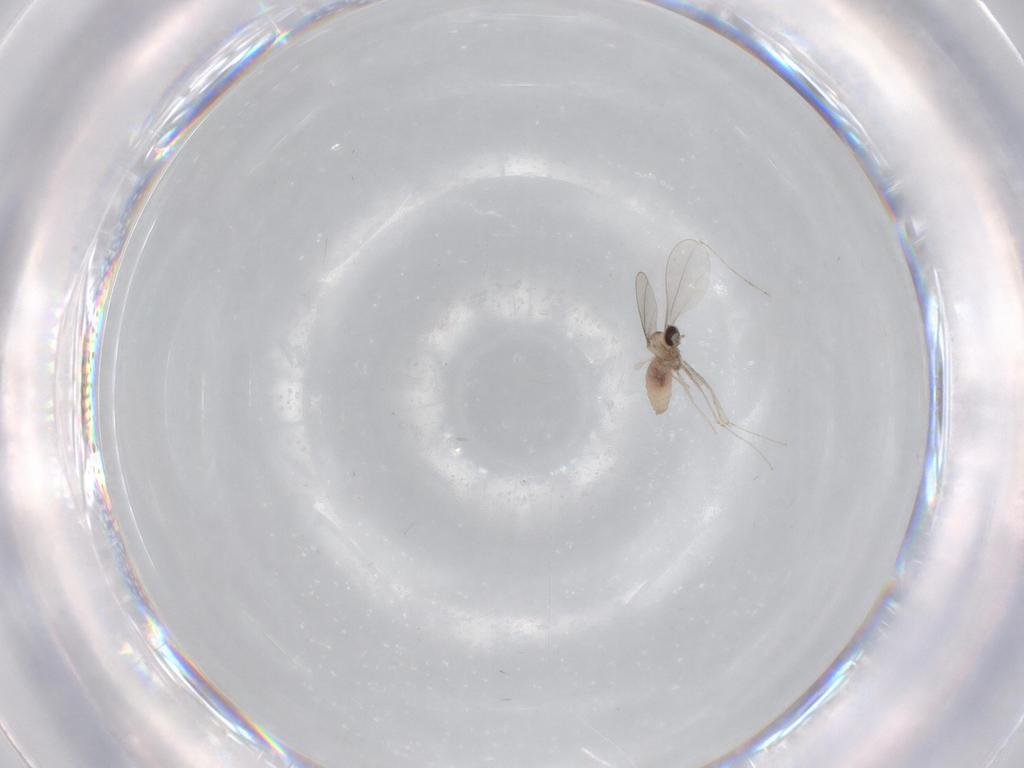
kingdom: Animalia
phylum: Arthropoda
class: Insecta
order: Diptera
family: Cecidomyiidae
